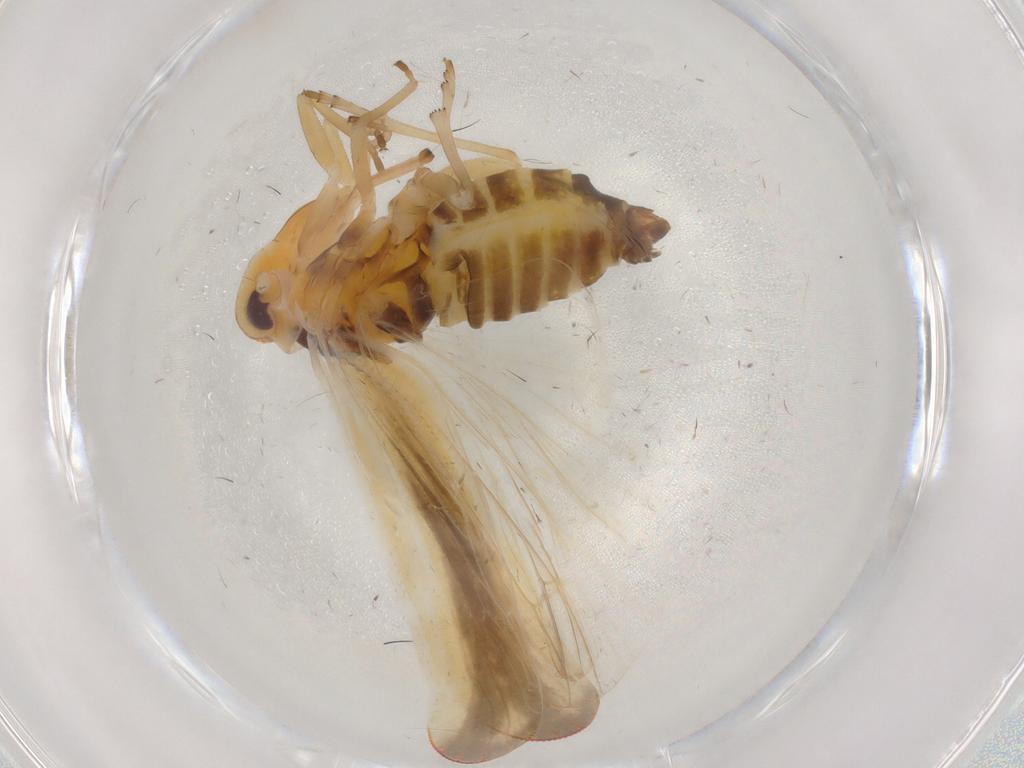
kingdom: Animalia
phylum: Arthropoda
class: Insecta
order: Hemiptera
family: Derbidae
